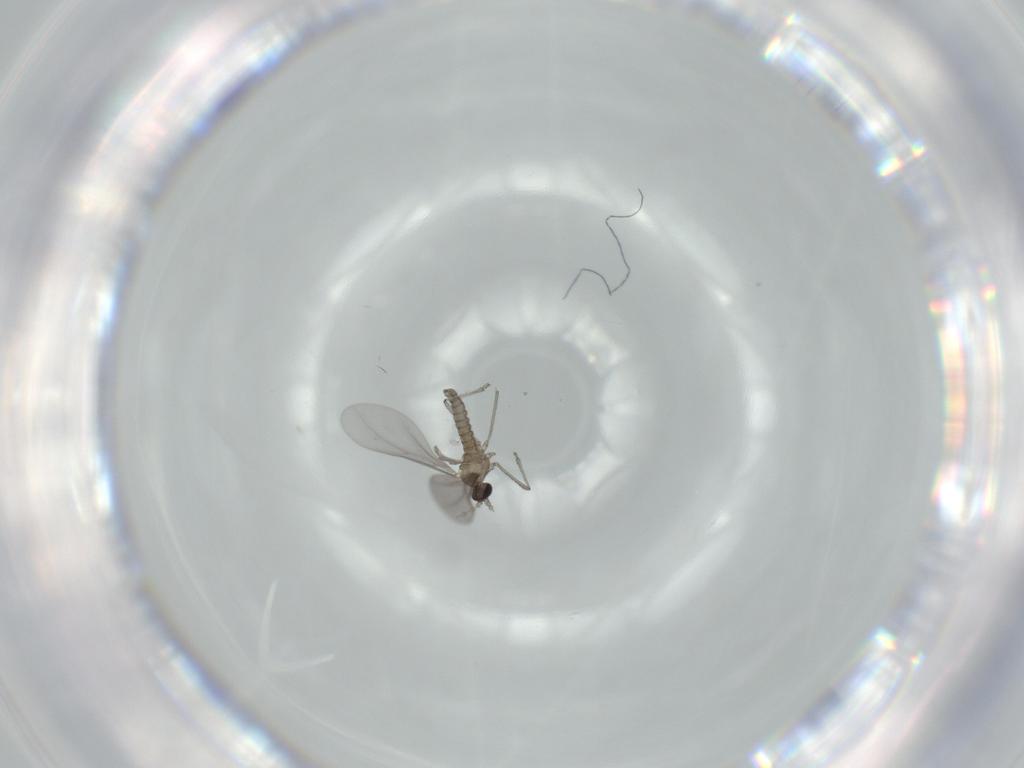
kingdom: Animalia
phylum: Arthropoda
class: Insecta
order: Diptera
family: Cecidomyiidae
